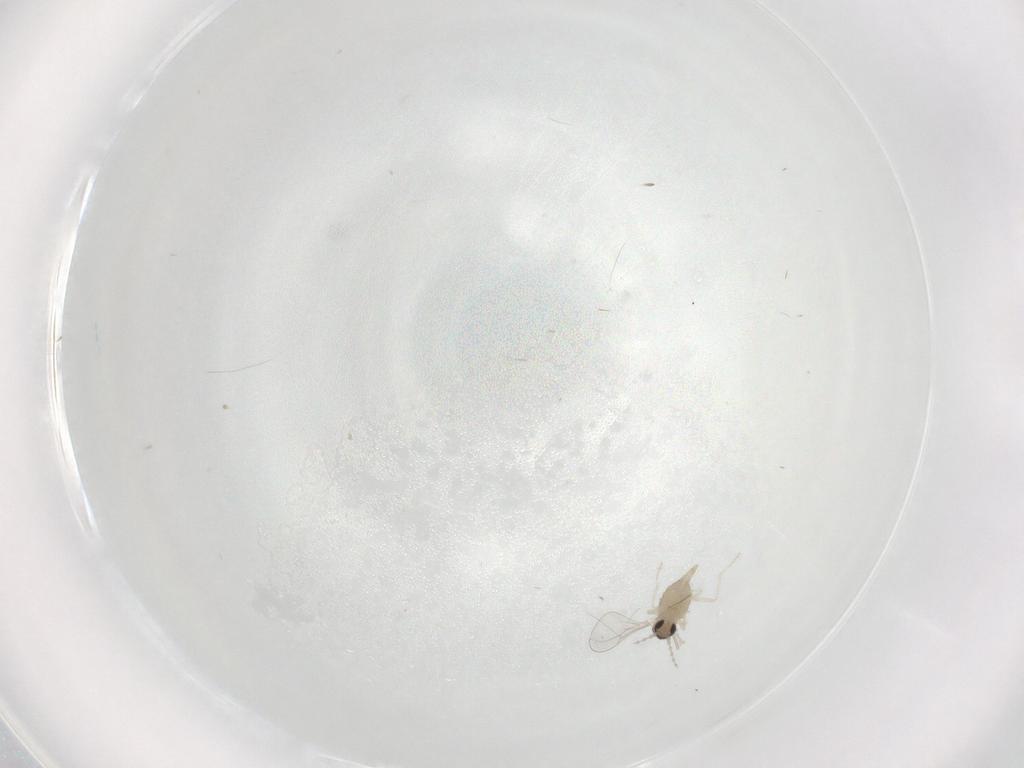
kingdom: Animalia
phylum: Arthropoda
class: Insecta
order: Diptera
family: Cecidomyiidae
